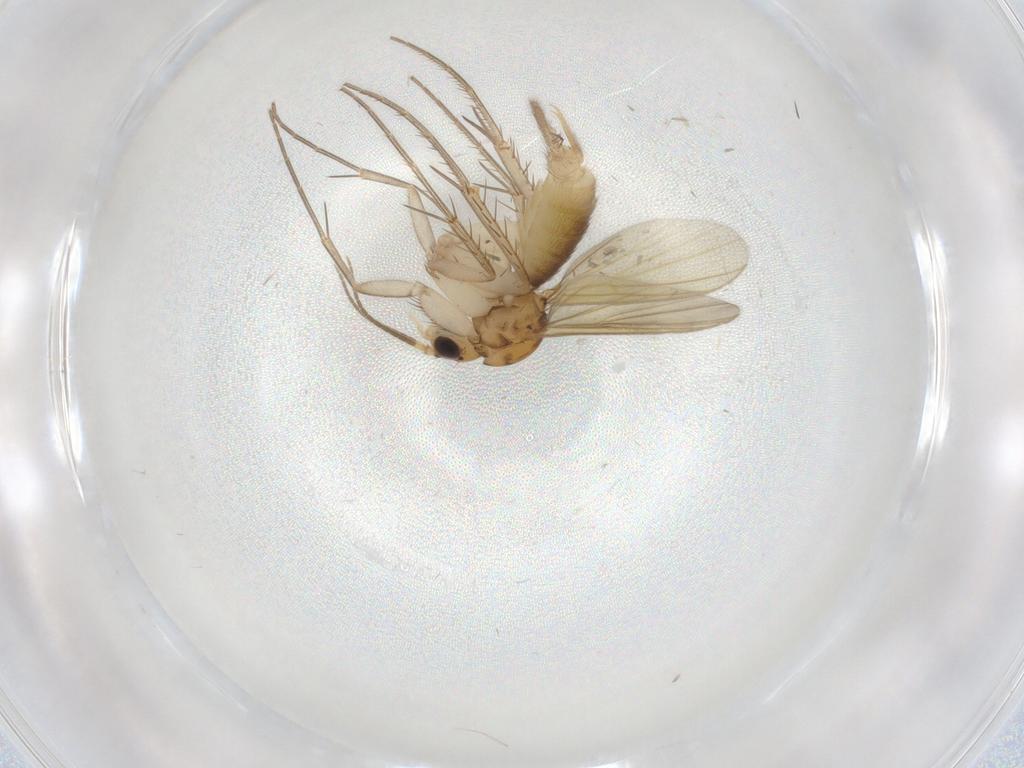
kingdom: Animalia
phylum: Arthropoda
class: Insecta
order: Diptera
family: Mycetophilidae
